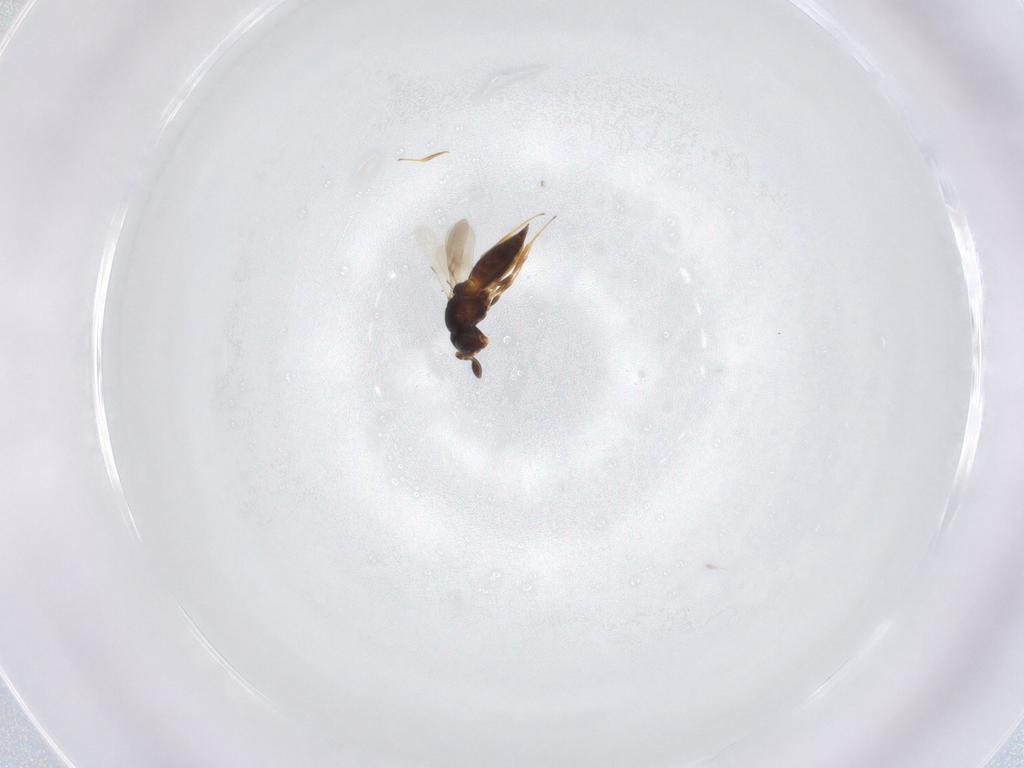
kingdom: Animalia
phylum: Arthropoda
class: Insecta
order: Hymenoptera
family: Scelionidae
